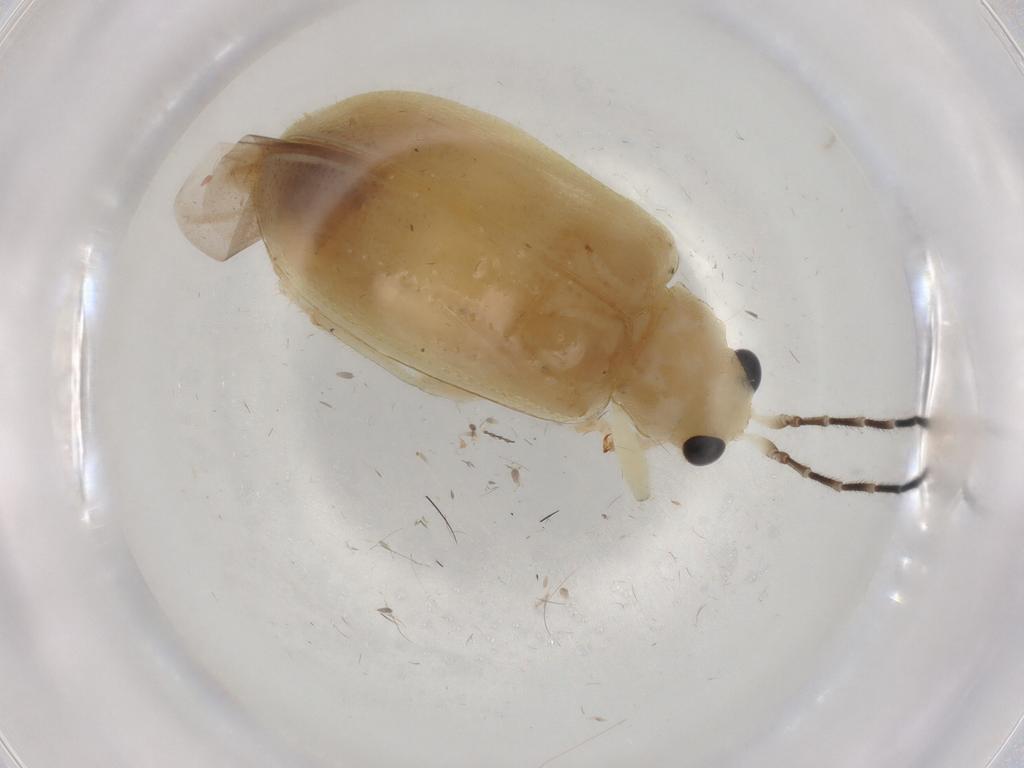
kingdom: Animalia
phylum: Arthropoda
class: Insecta
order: Coleoptera
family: Chrysomelidae
